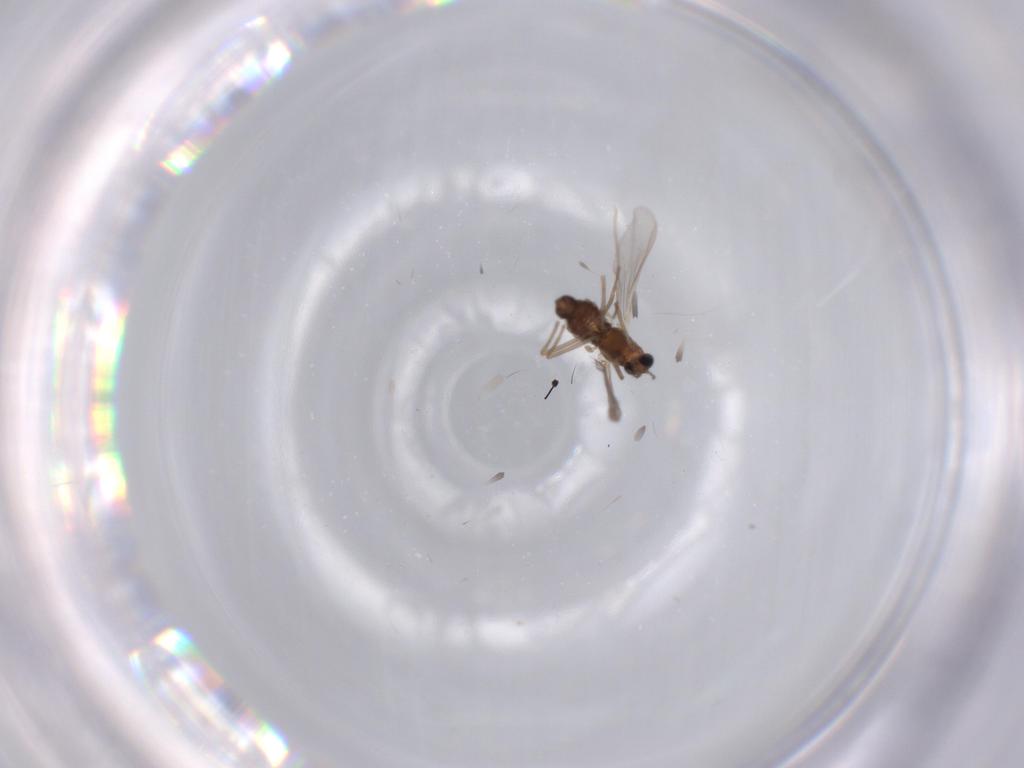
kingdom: Animalia
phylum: Arthropoda
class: Insecta
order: Diptera
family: Chironomidae
